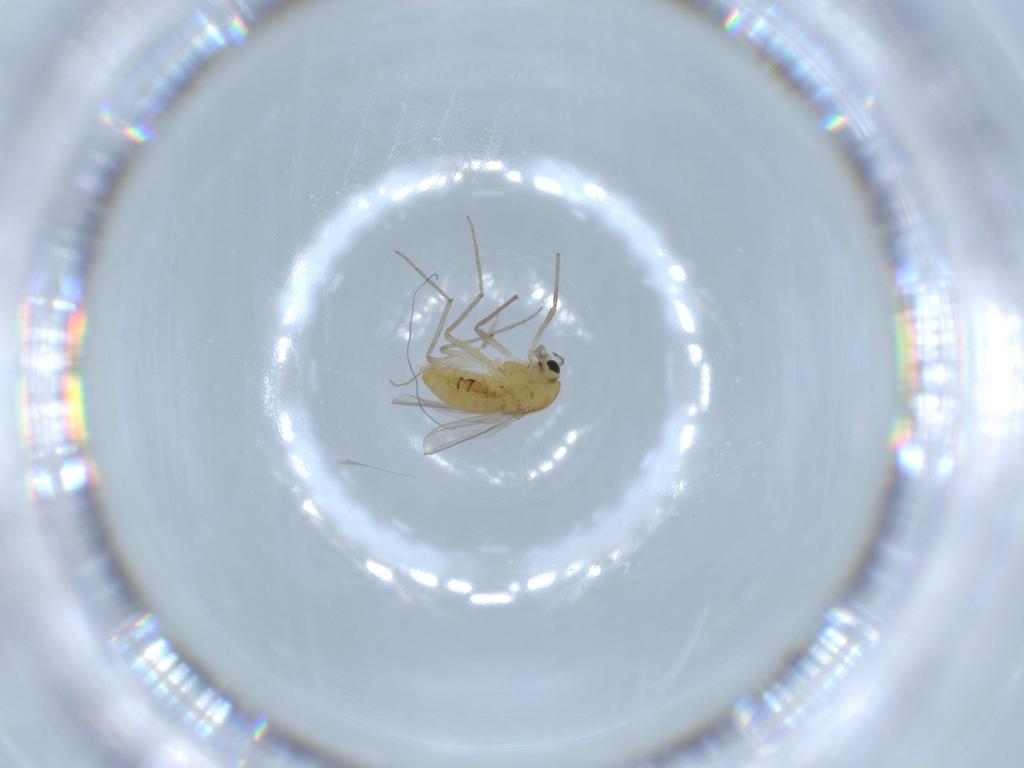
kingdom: Animalia
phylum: Arthropoda
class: Insecta
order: Diptera
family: Chironomidae
